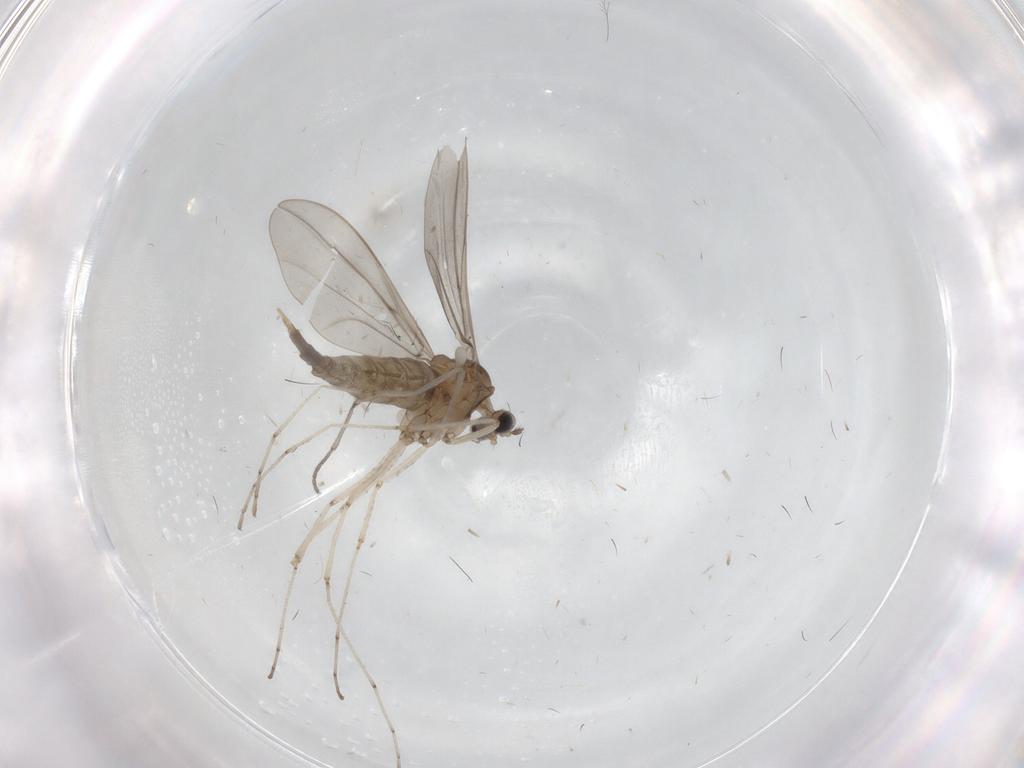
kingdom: Animalia
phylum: Arthropoda
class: Insecta
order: Diptera
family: Cecidomyiidae
